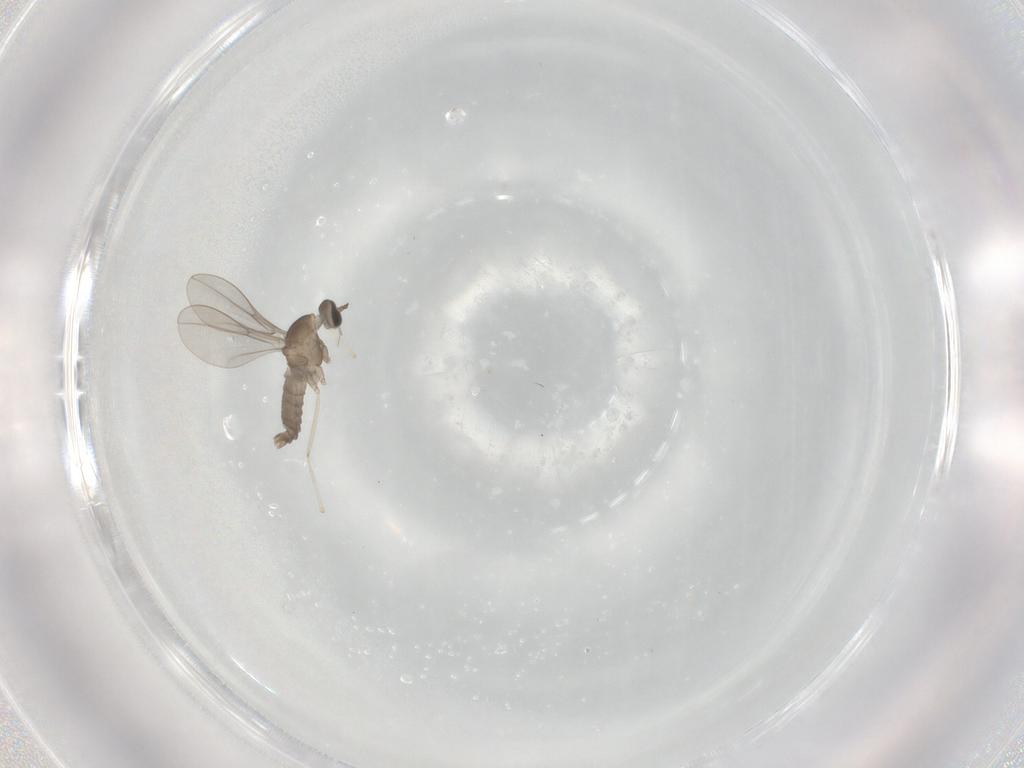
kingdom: Animalia
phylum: Arthropoda
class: Insecta
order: Diptera
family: Cecidomyiidae
